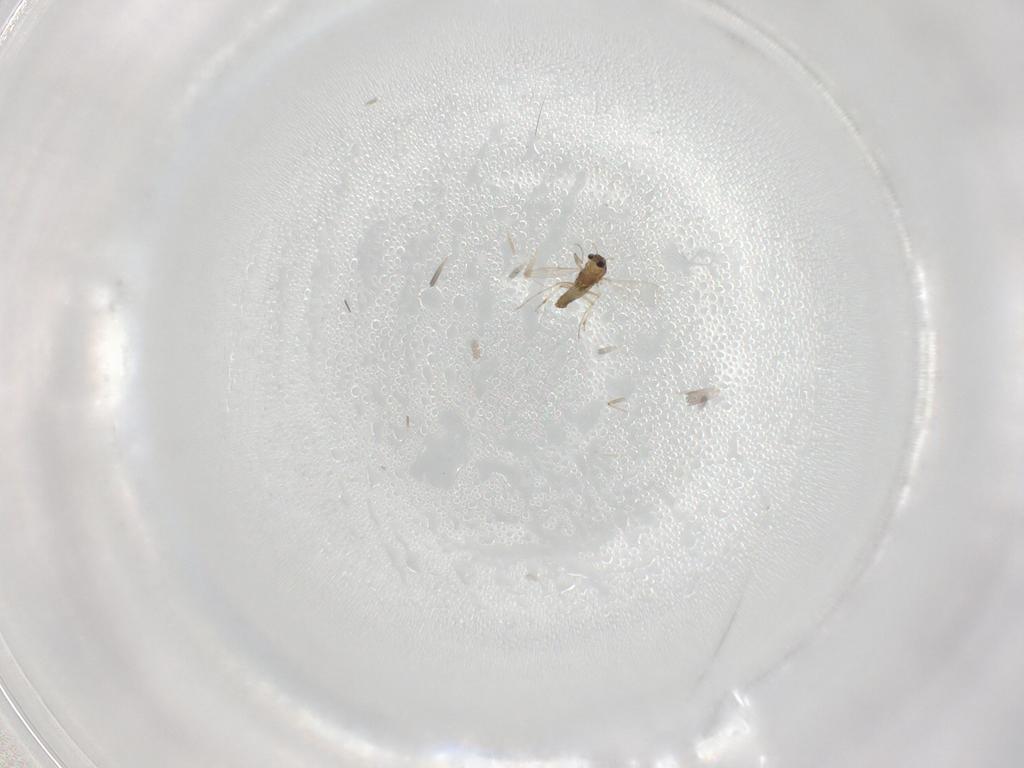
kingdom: Animalia
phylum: Arthropoda
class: Insecta
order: Diptera
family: Chironomidae
